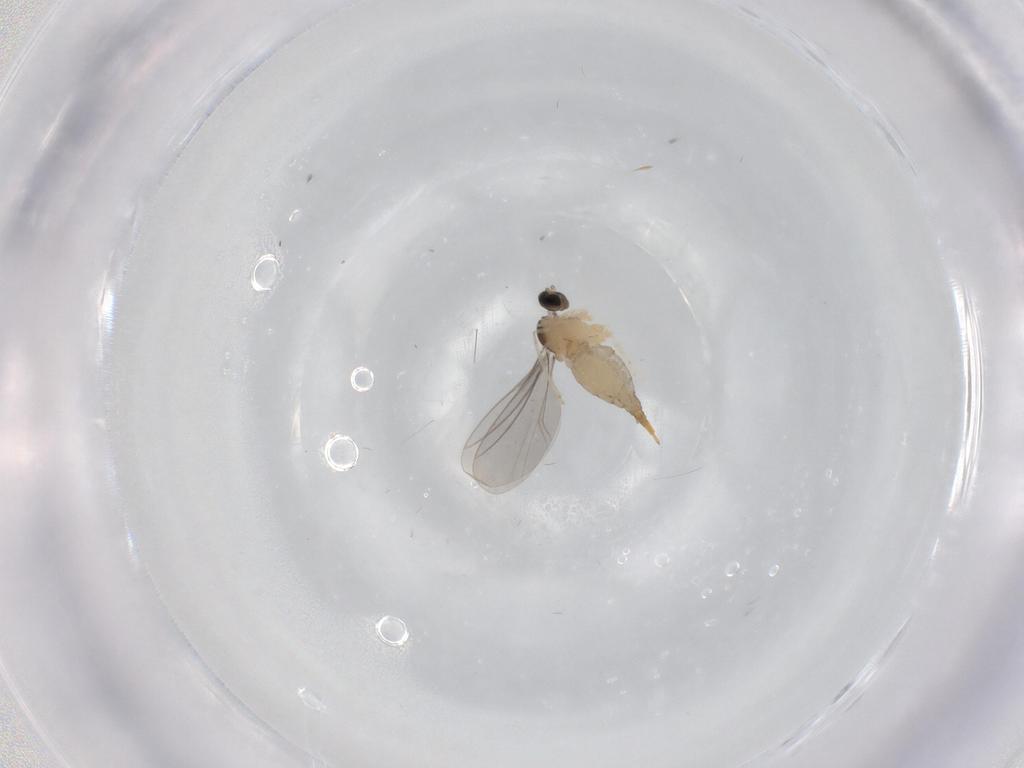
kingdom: Animalia
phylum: Arthropoda
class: Insecta
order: Diptera
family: Cecidomyiidae
